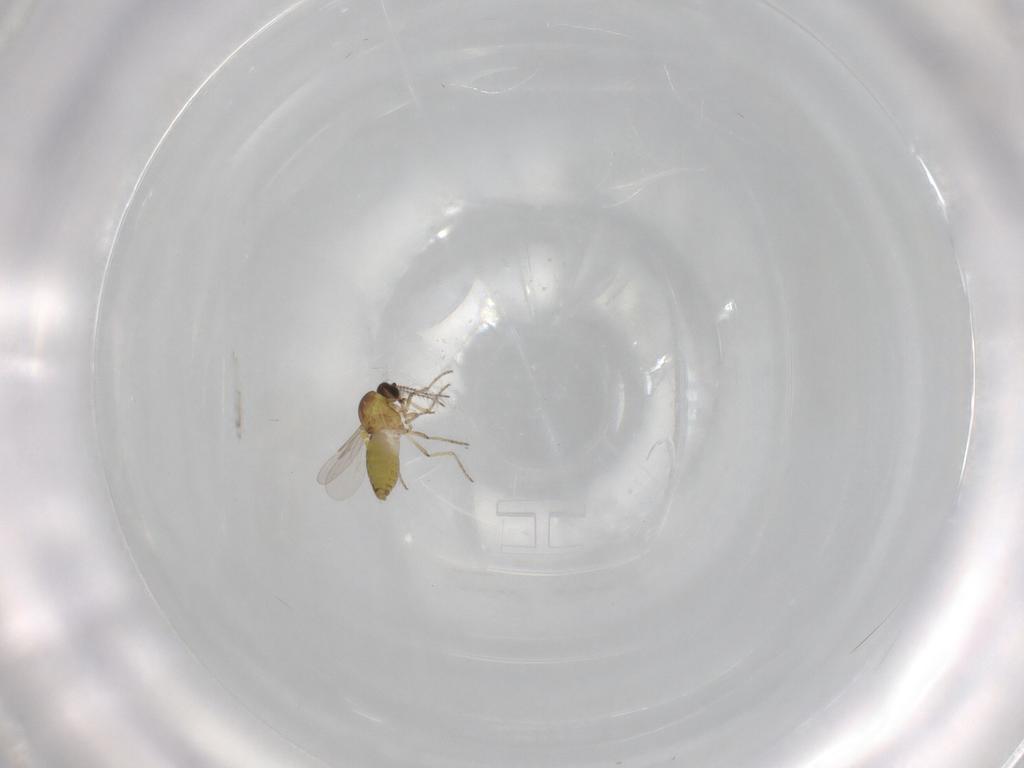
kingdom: Animalia
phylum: Arthropoda
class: Insecta
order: Diptera
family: Ceratopogonidae
